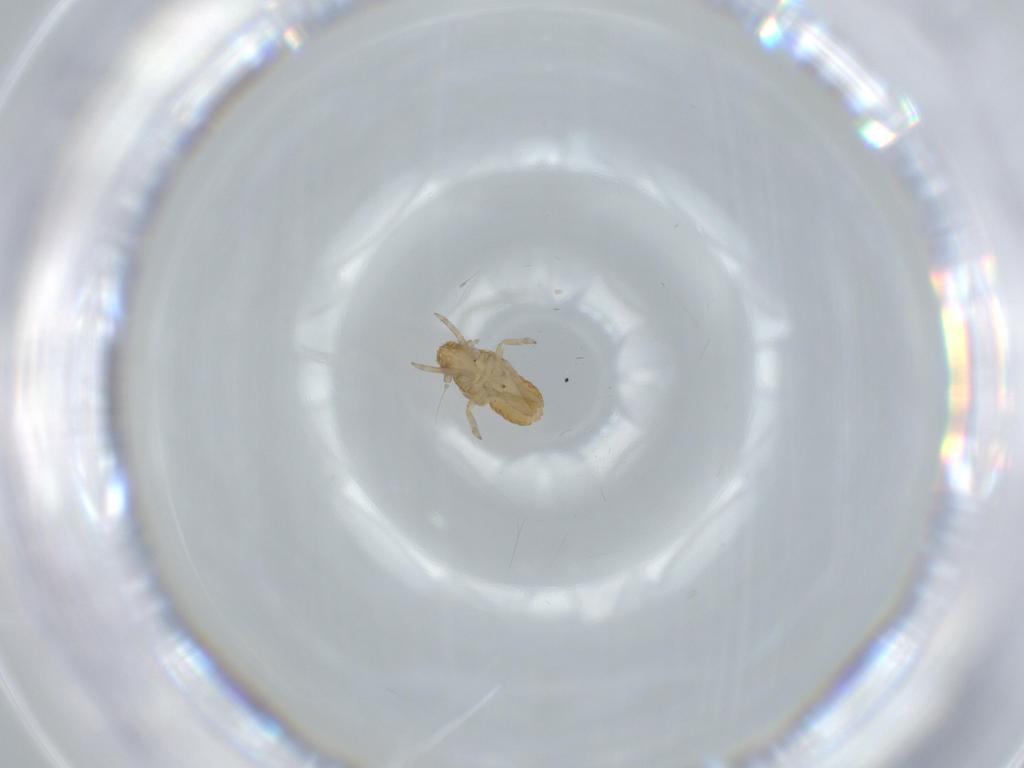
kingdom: Animalia
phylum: Arthropoda
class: Insecta
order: Hemiptera
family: Delphacidae
